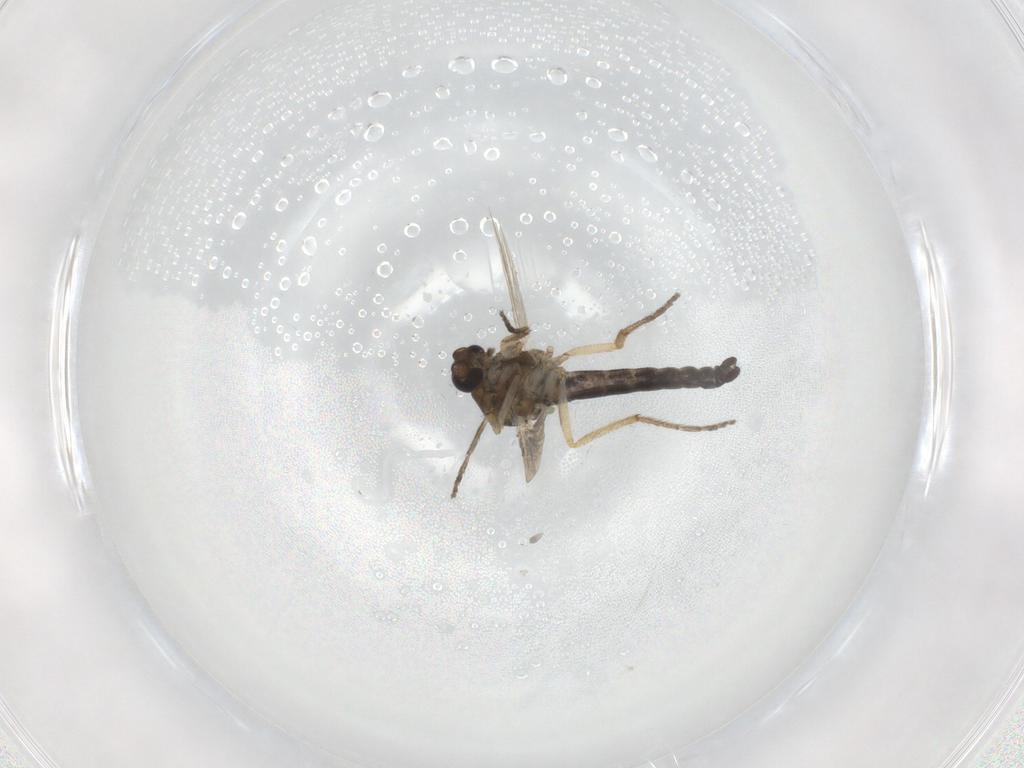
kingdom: Animalia
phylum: Arthropoda
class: Insecta
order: Diptera
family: Ceratopogonidae
